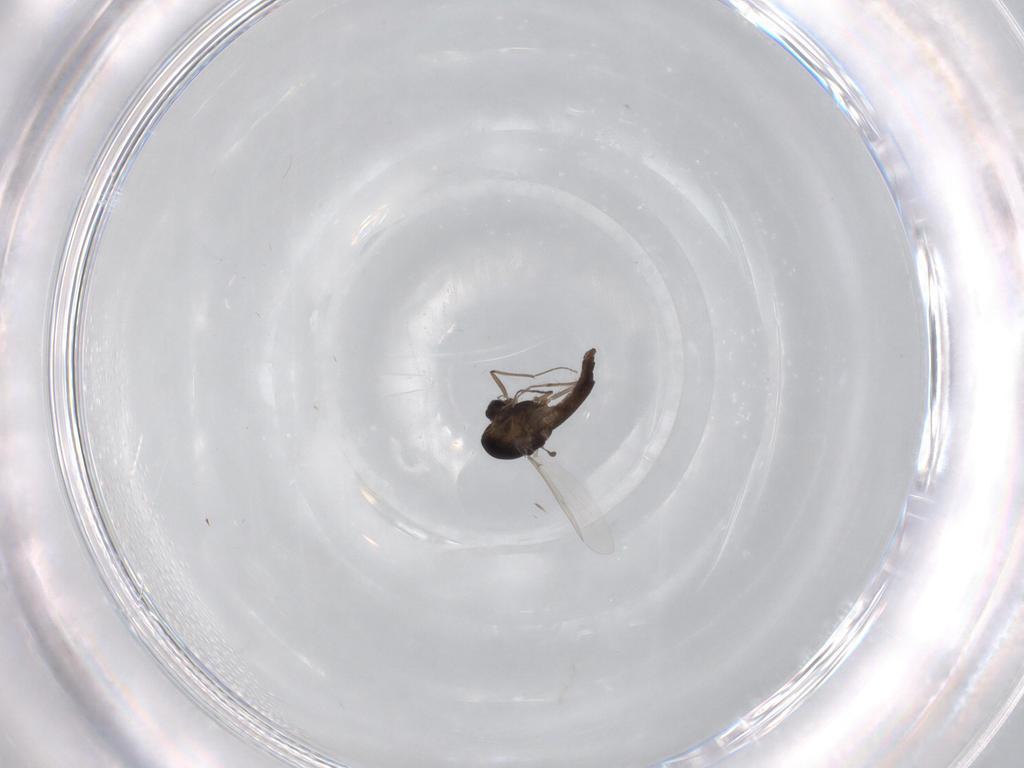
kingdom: Animalia
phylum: Arthropoda
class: Insecta
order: Diptera
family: Chironomidae
